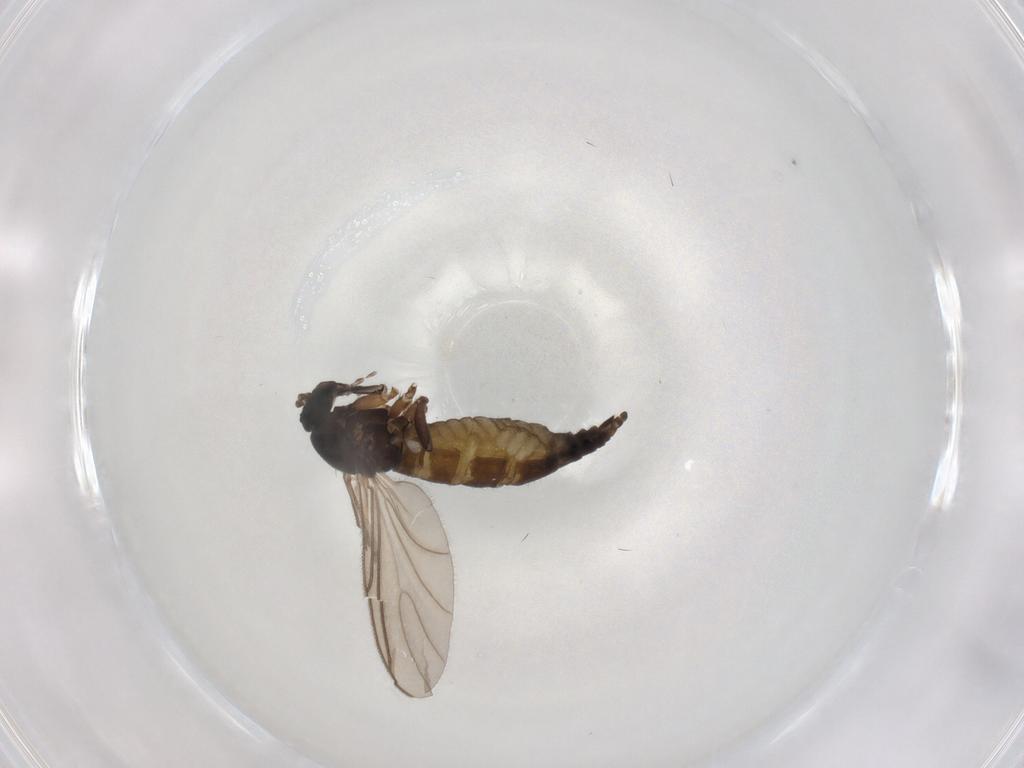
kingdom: Animalia
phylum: Arthropoda
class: Insecta
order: Diptera
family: Sciaridae
